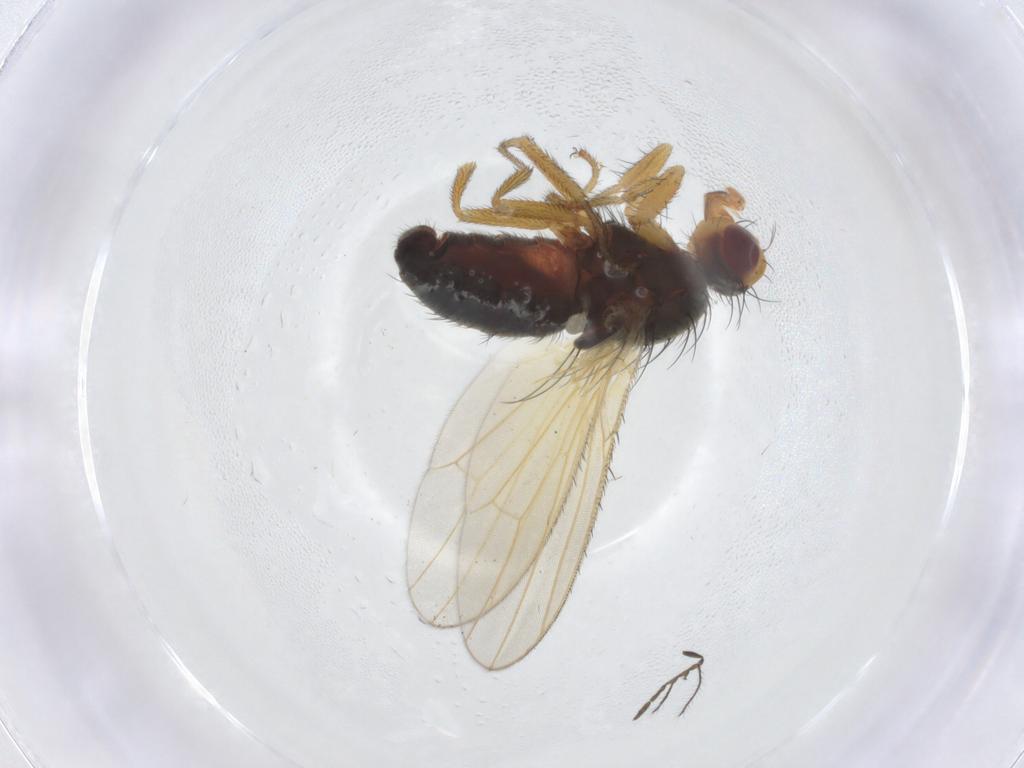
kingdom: Animalia
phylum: Arthropoda
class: Insecta
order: Diptera
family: Heleomyzidae
